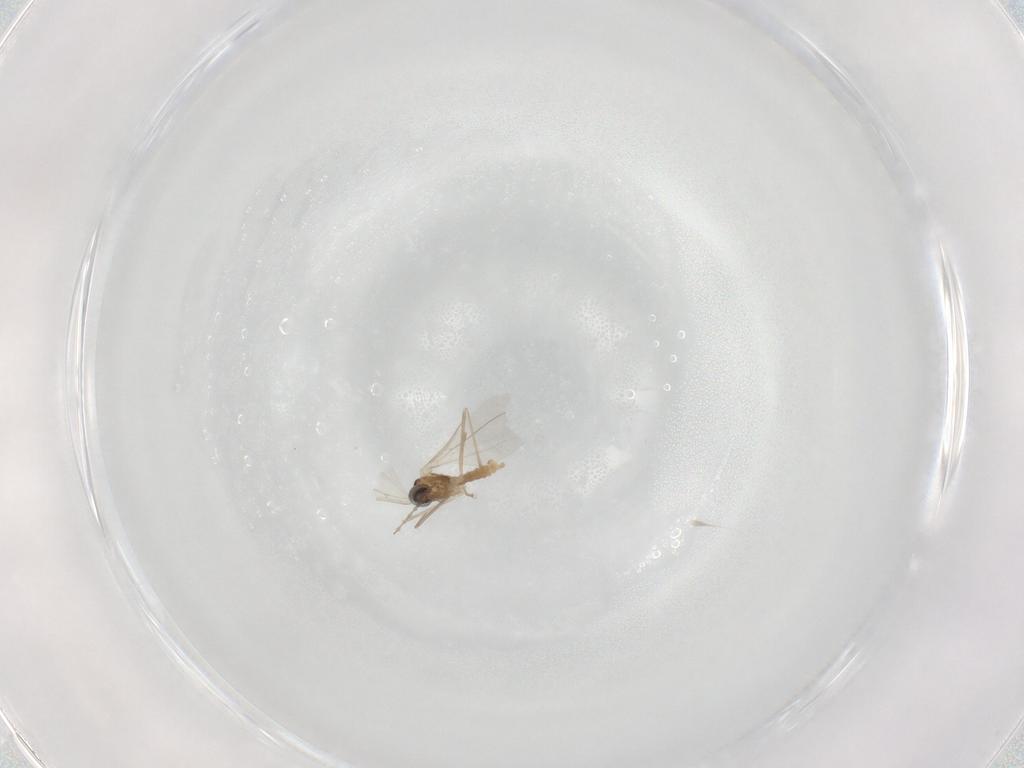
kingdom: Animalia
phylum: Arthropoda
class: Insecta
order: Diptera
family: Cecidomyiidae
